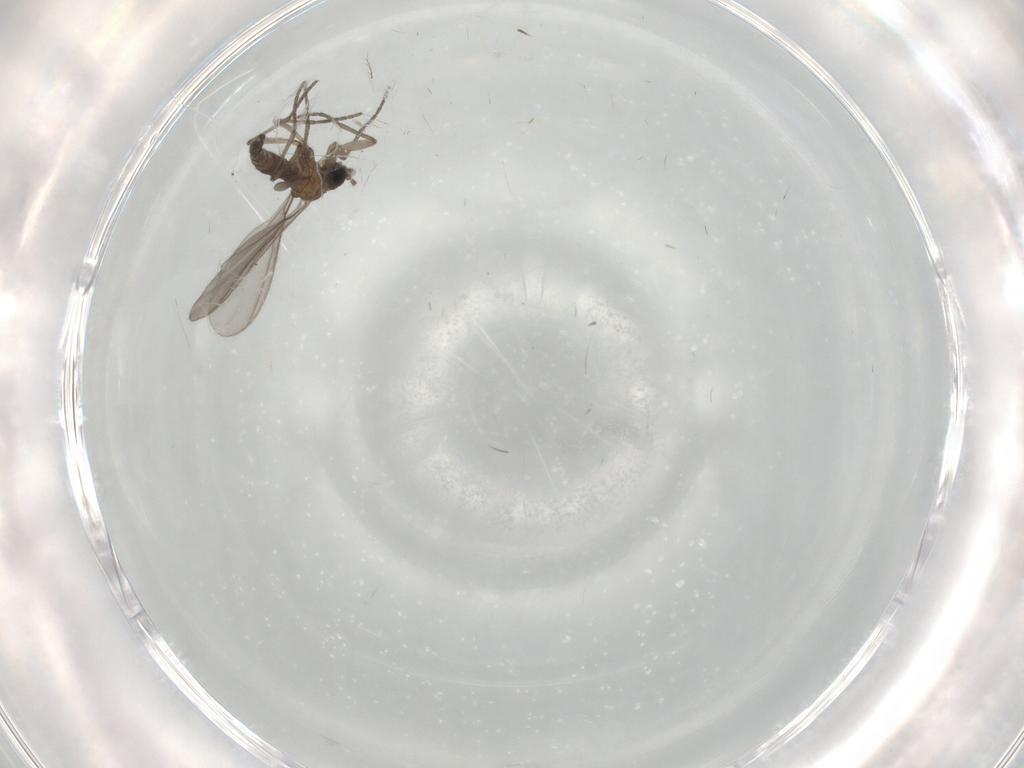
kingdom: Animalia
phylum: Arthropoda
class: Insecta
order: Diptera
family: Chironomidae
